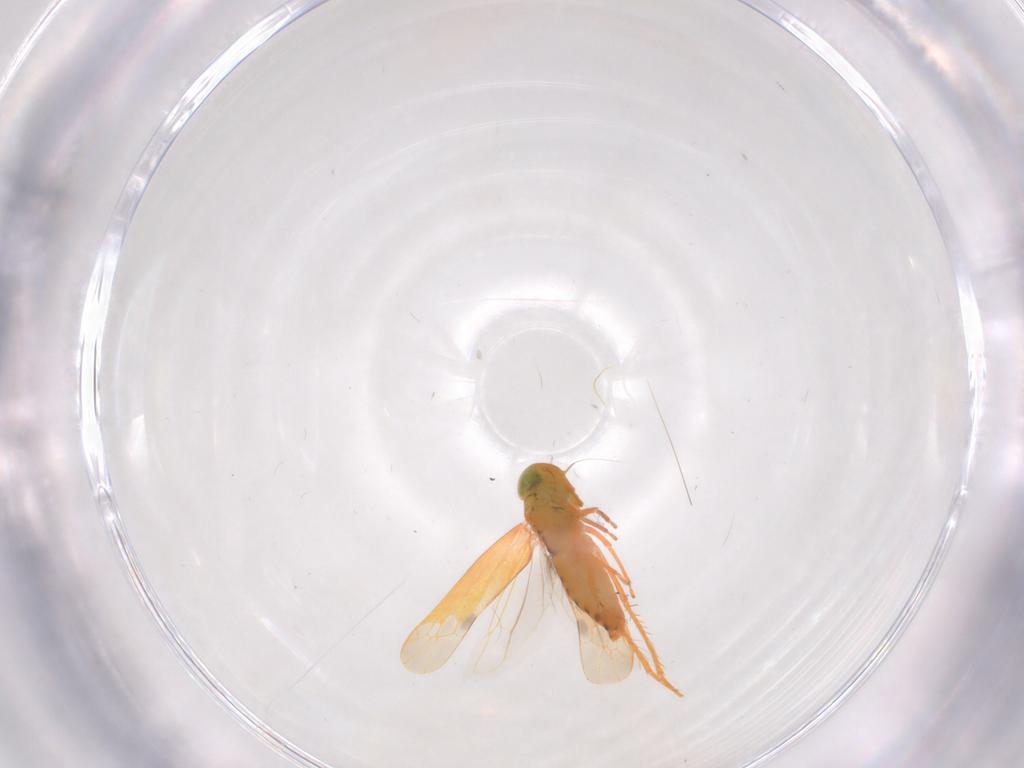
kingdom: Animalia
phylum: Arthropoda
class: Insecta
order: Hemiptera
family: Cicadellidae
